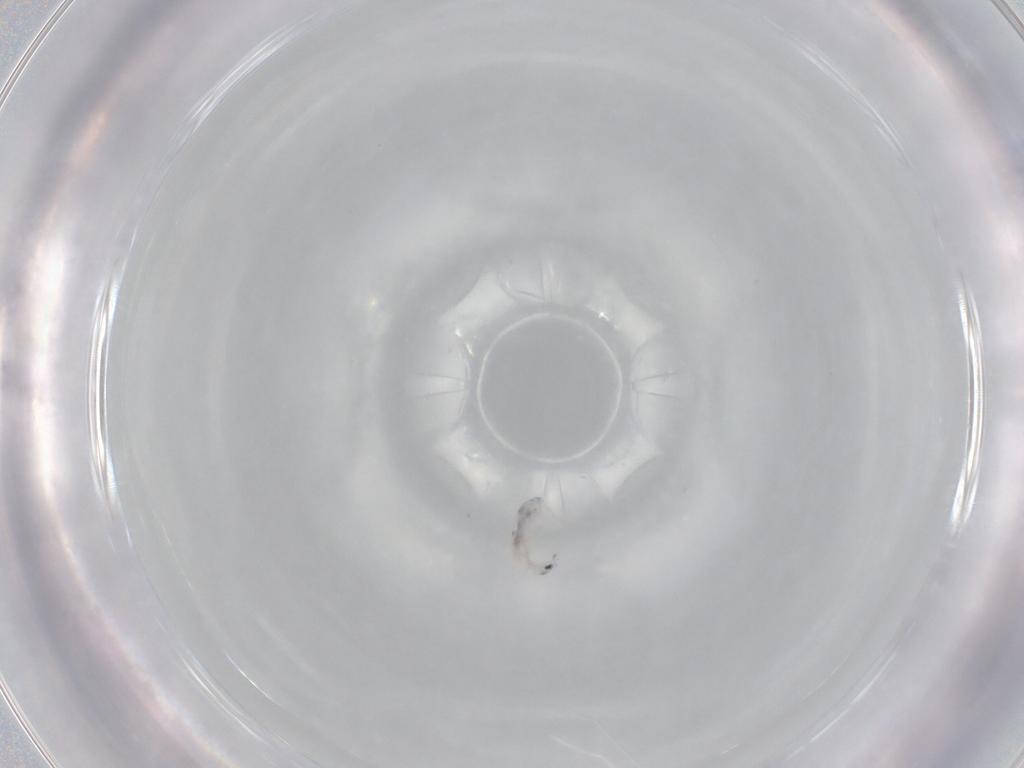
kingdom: Animalia
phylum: Arthropoda
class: Collembola
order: Entomobryomorpha
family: Entomobryidae
